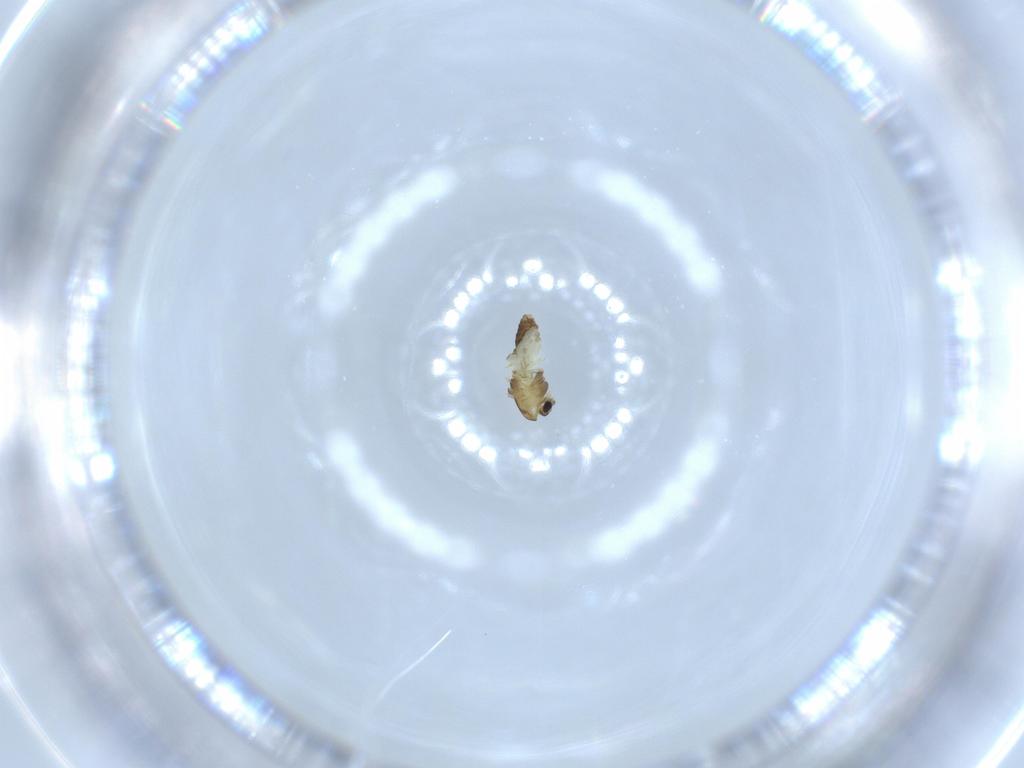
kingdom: Animalia
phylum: Arthropoda
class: Insecta
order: Diptera
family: Chironomidae
